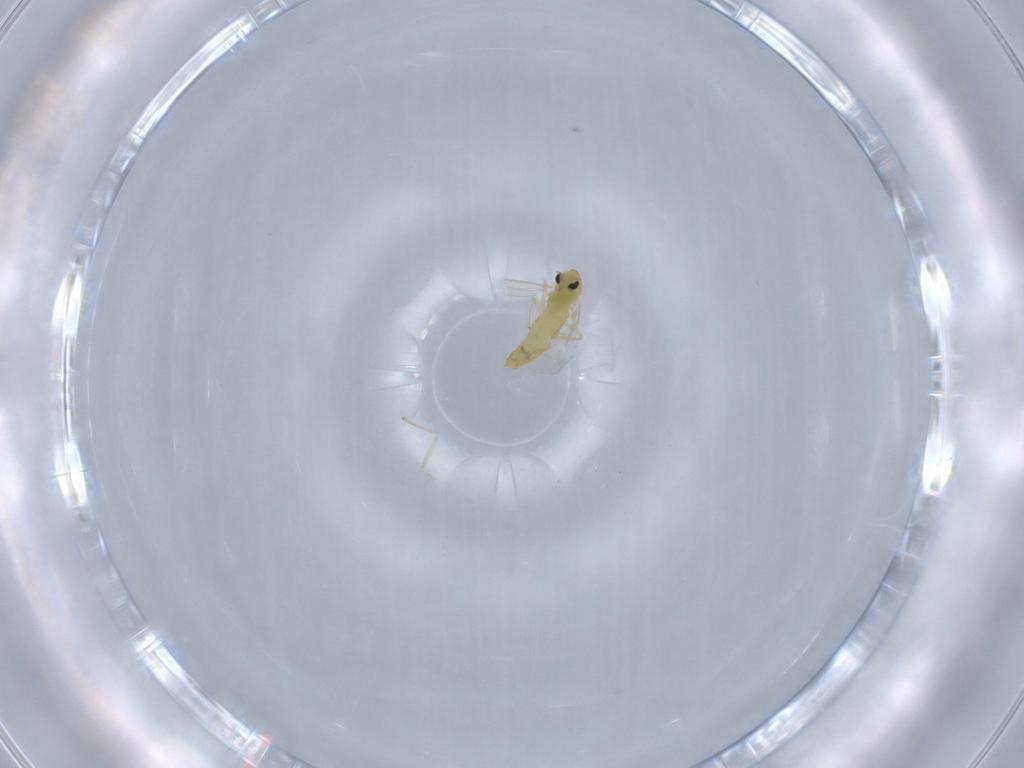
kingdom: Animalia
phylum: Arthropoda
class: Insecta
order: Diptera
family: Chironomidae
